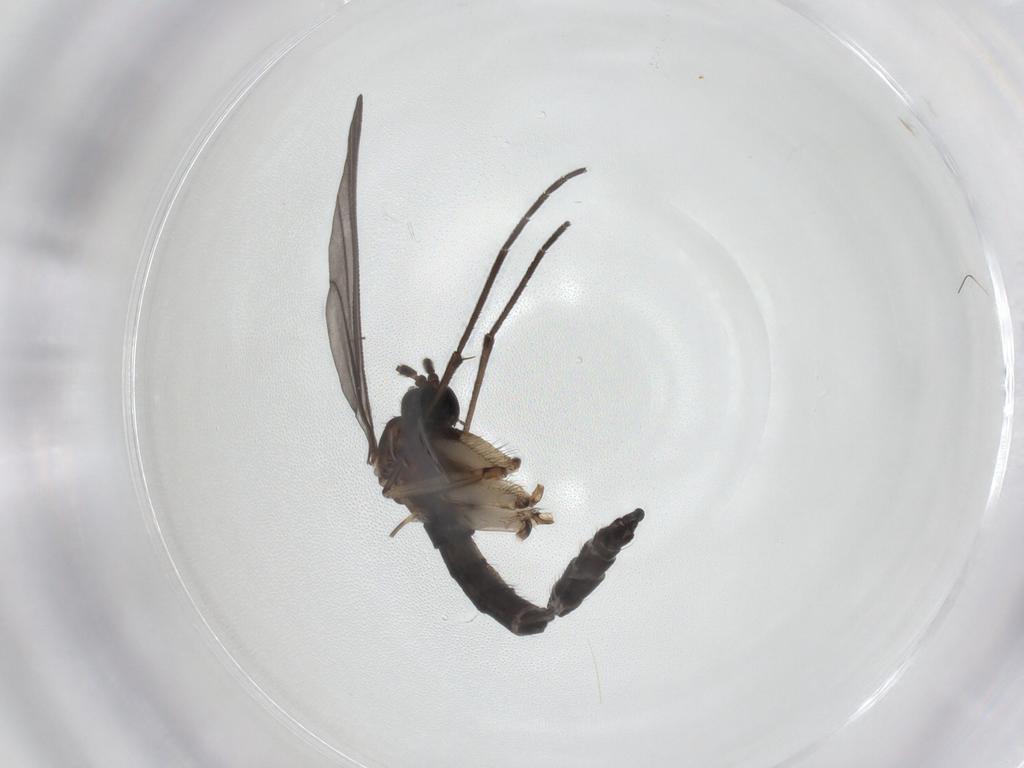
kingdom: Animalia
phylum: Arthropoda
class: Insecta
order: Diptera
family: Sciaridae
